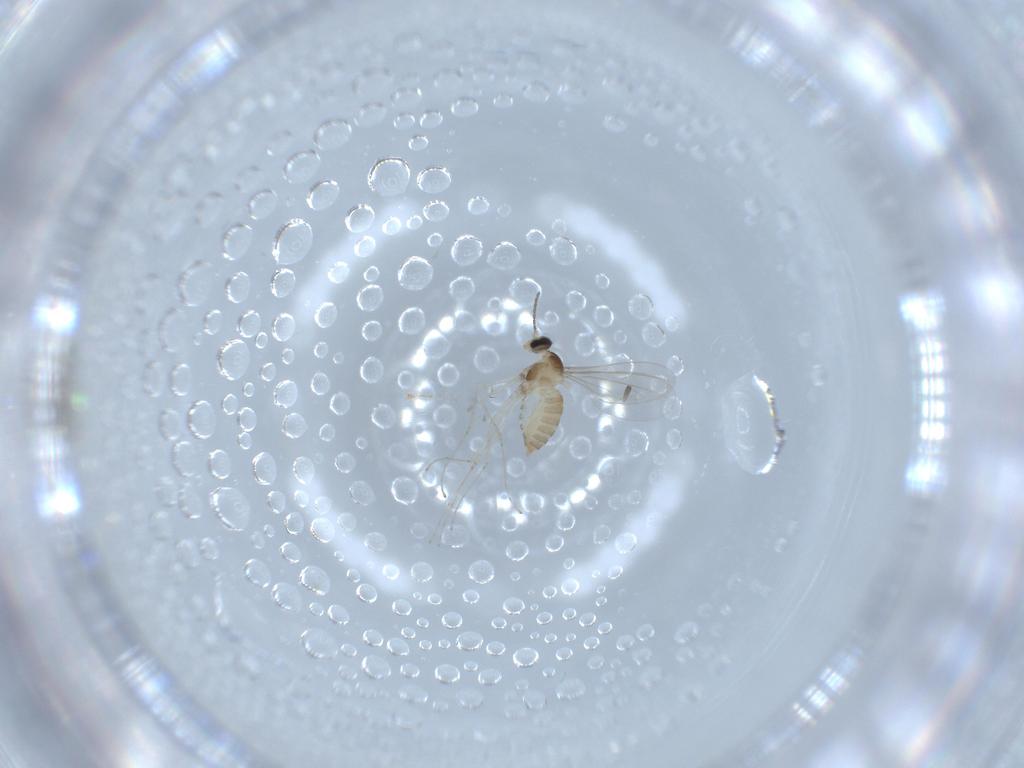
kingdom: Animalia
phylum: Arthropoda
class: Insecta
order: Diptera
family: Cecidomyiidae
